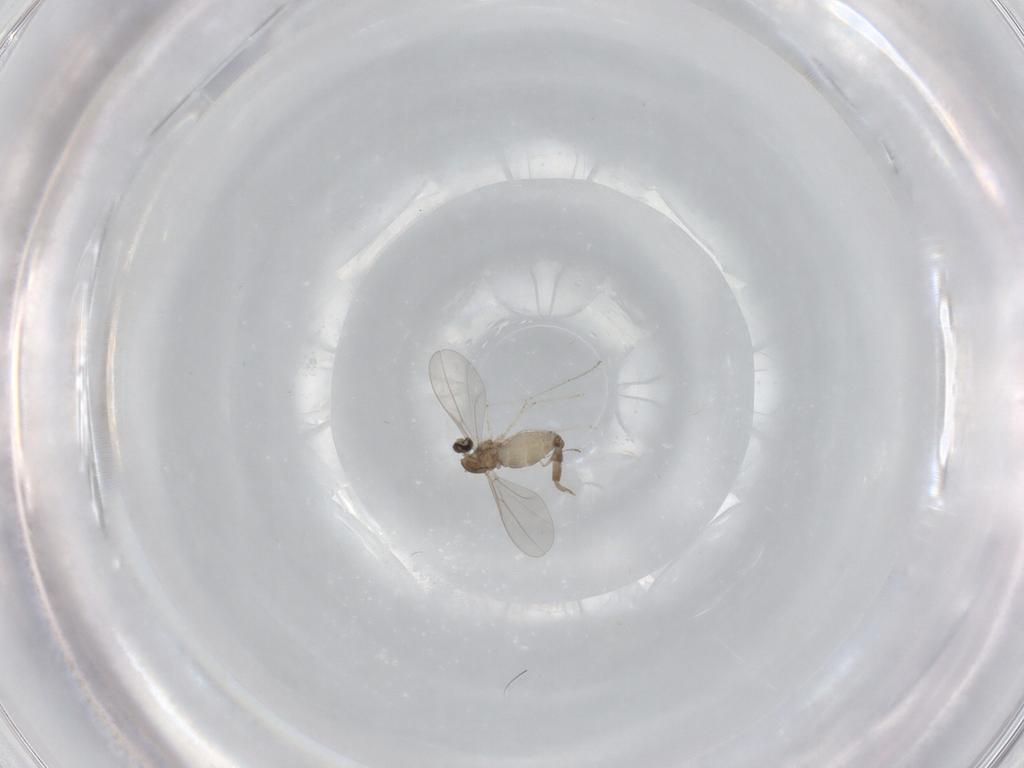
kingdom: Animalia
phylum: Arthropoda
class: Insecta
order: Diptera
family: Cecidomyiidae
